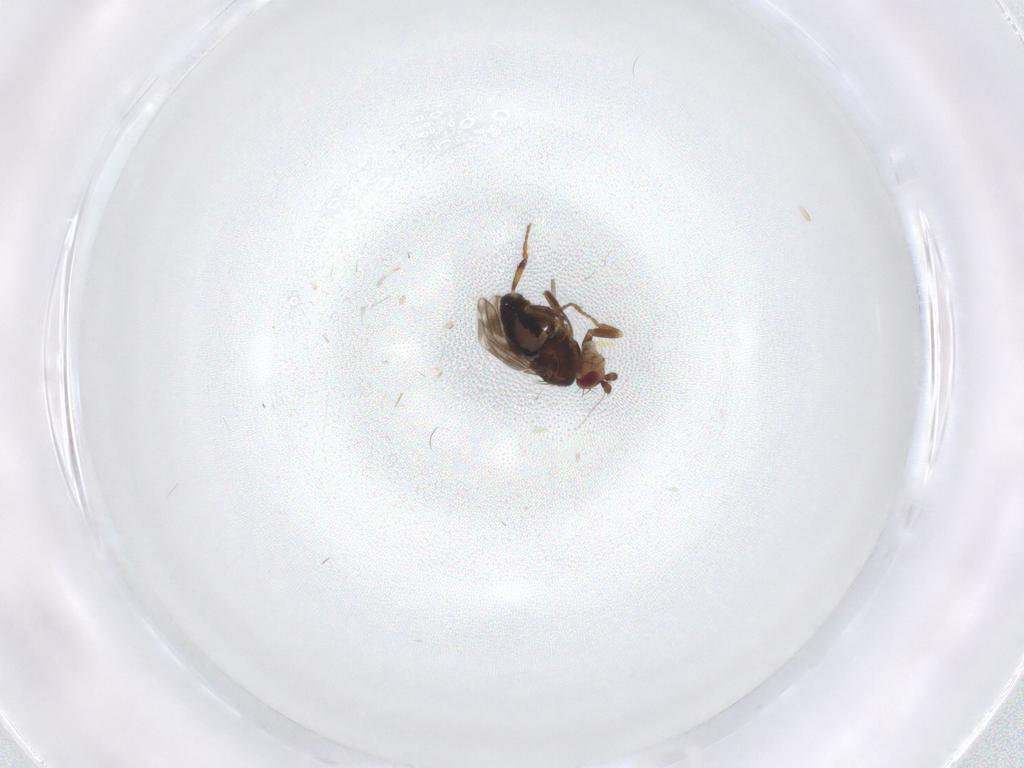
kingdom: Animalia
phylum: Arthropoda
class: Insecta
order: Diptera
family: Sphaeroceridae
